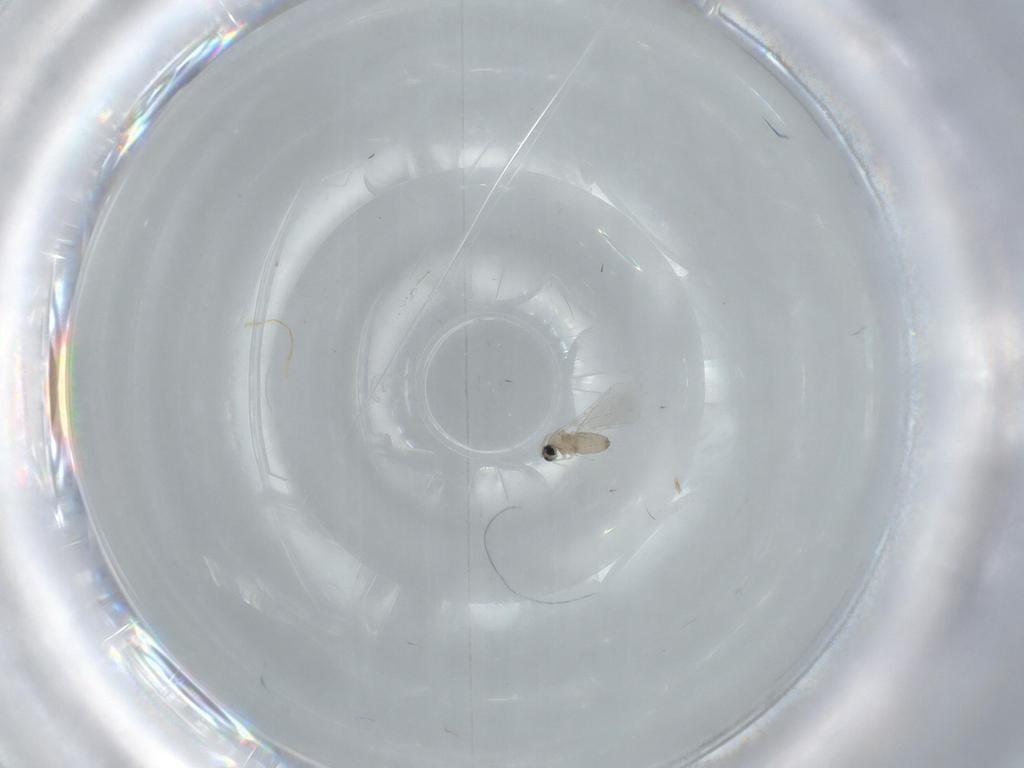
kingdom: Animalia
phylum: Arthropoda
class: Insecta
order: Diptera
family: Cecidomyiidae
